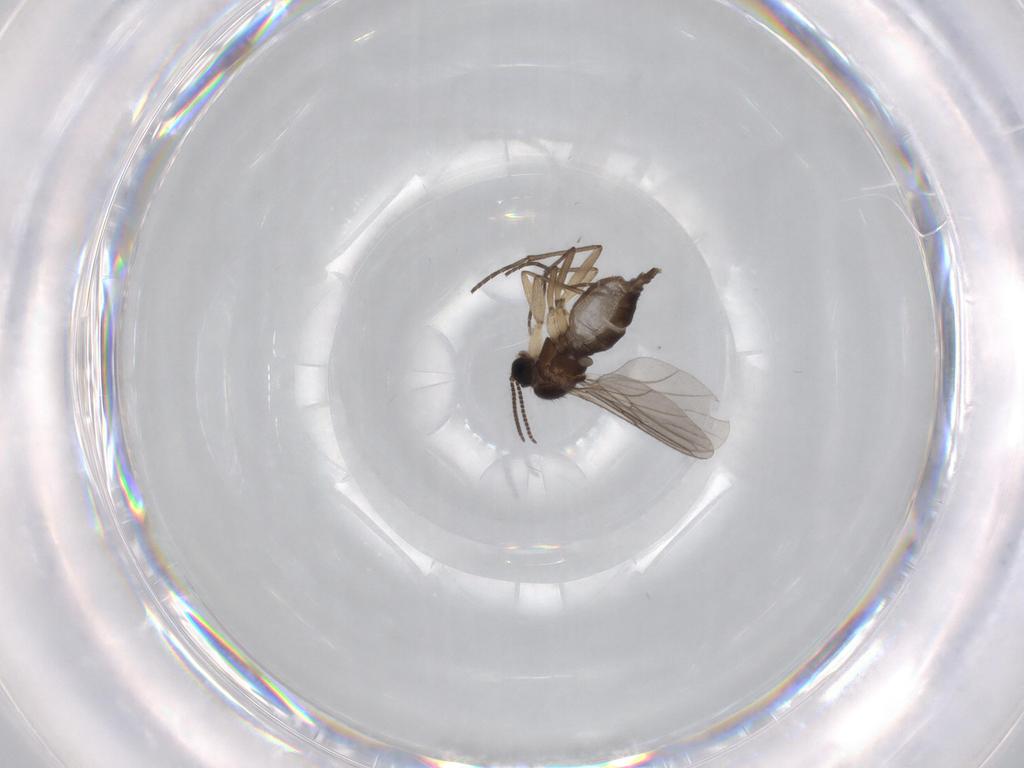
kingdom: Animalia
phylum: Arthropoda
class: Insecta
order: Diptera
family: Sciaridae
